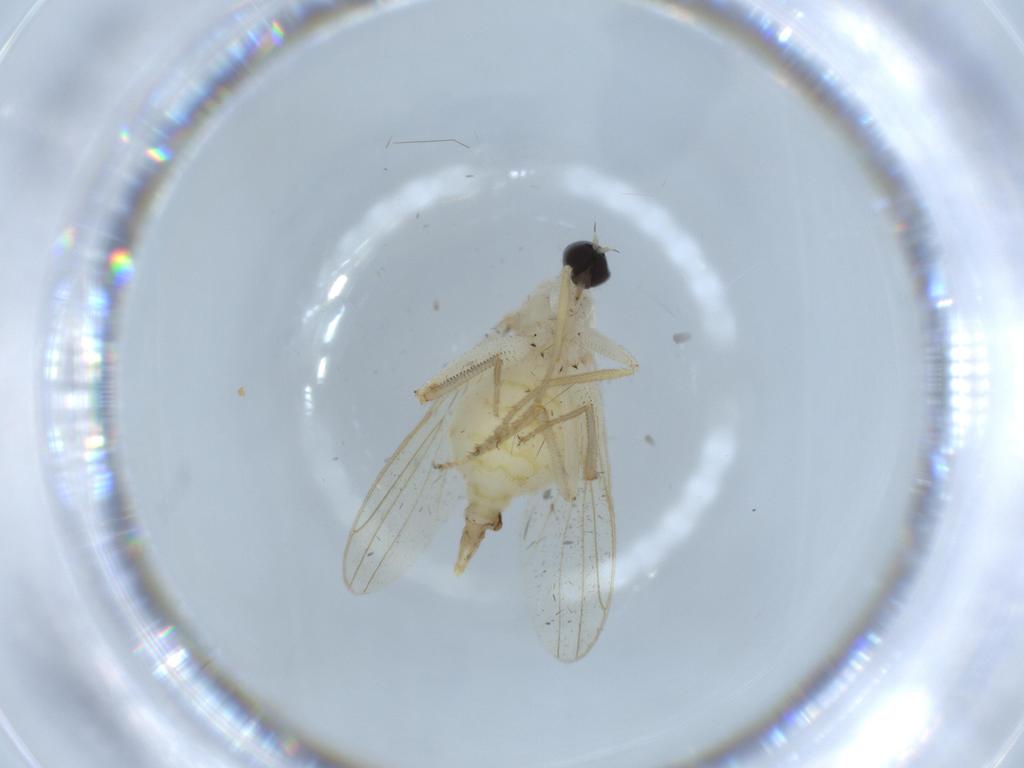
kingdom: Animalia
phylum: Arthropoda
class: Insecta
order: Diptera
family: Hybotidae
